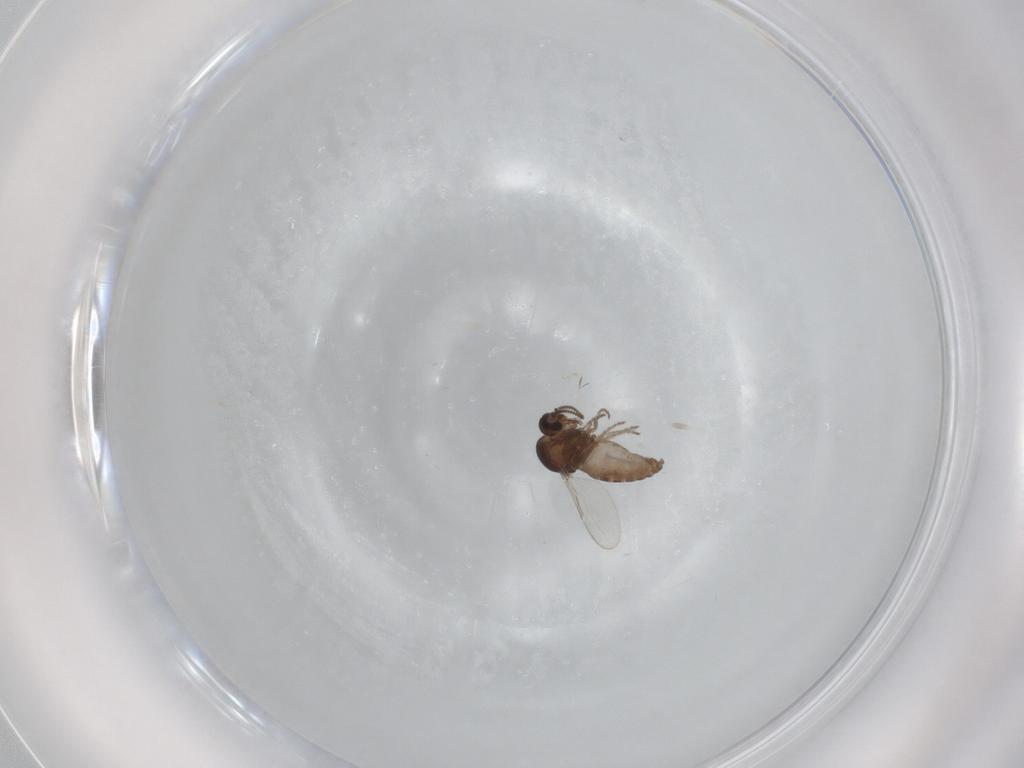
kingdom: Animalia
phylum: Arthropoda
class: Insecta
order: Diptera
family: Ceratopogonidae
